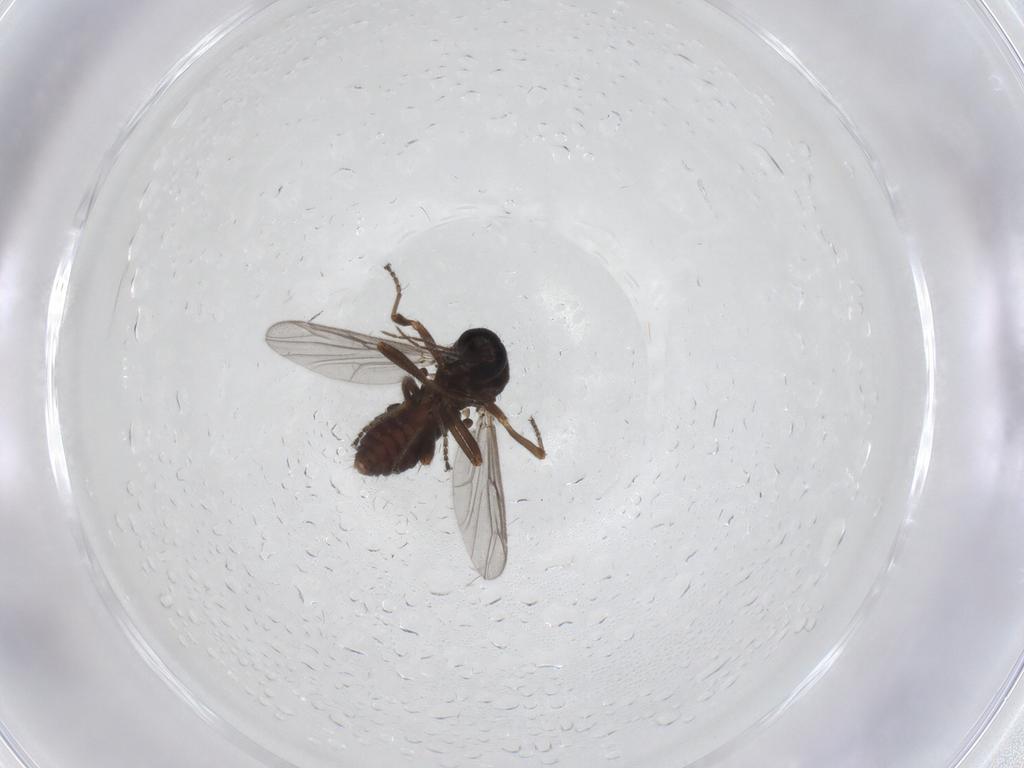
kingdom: Animalia
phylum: Arthropoda
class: Insecta
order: Diptera
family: Ceratopogonidae
